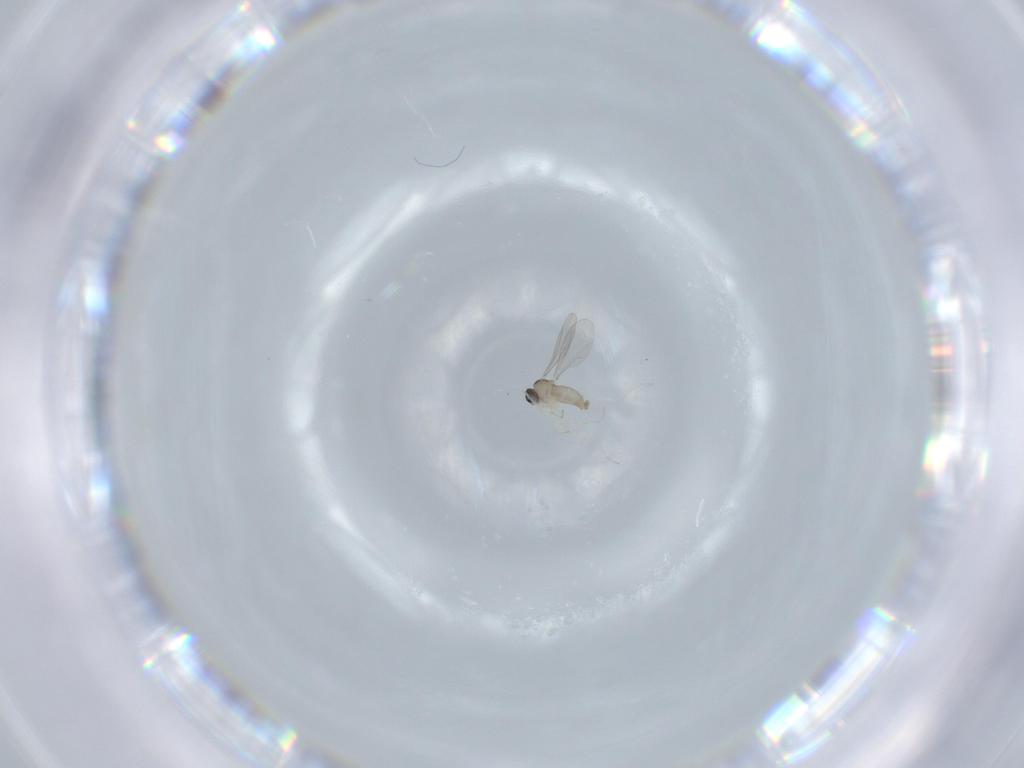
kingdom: Animalia
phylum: Arthropoda
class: Insecta
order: Diptera
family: Cecidomyiidae
